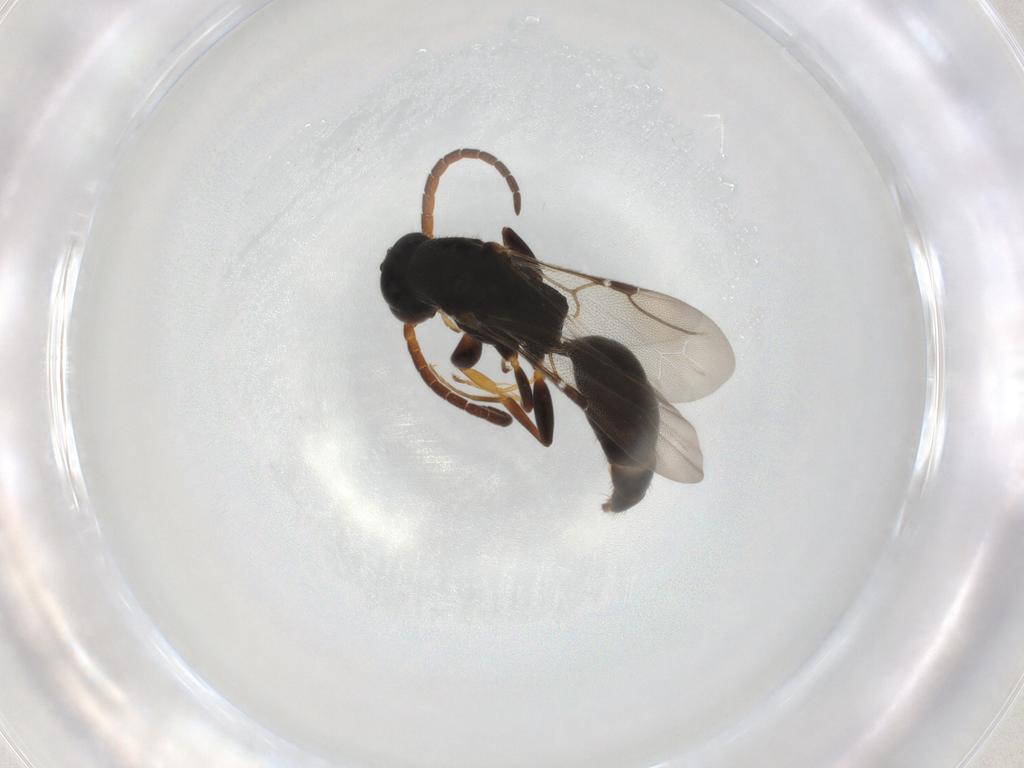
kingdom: Animalia
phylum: Arthropoda
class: Insecta
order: Hymenoptera
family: Bethylidae
